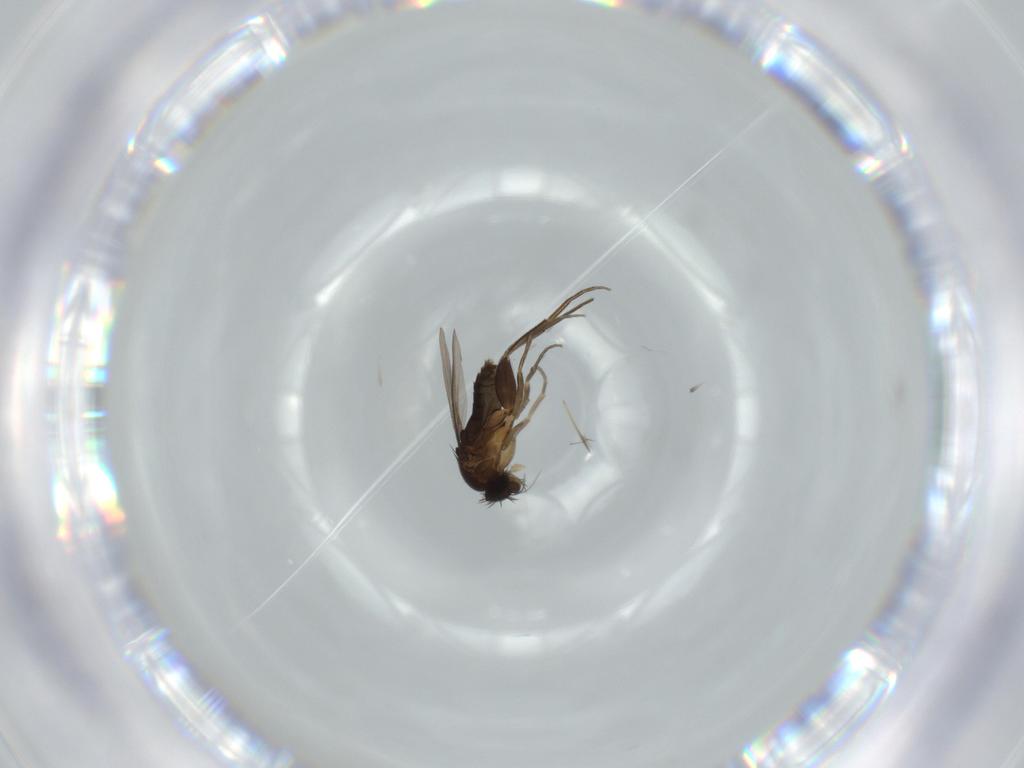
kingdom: Animalia
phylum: Arthropoda
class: Insecta
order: Diptera
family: Phoridae
